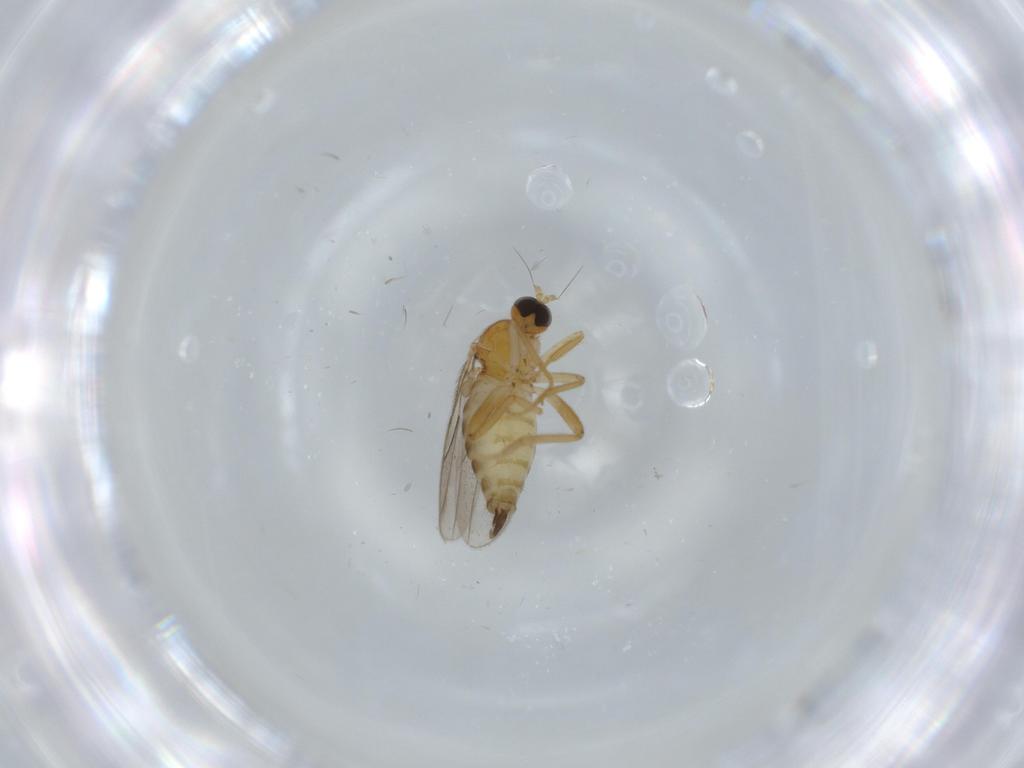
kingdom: Animalia
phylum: Arthropoda
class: Insecta
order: Diptera
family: Hybotidae
